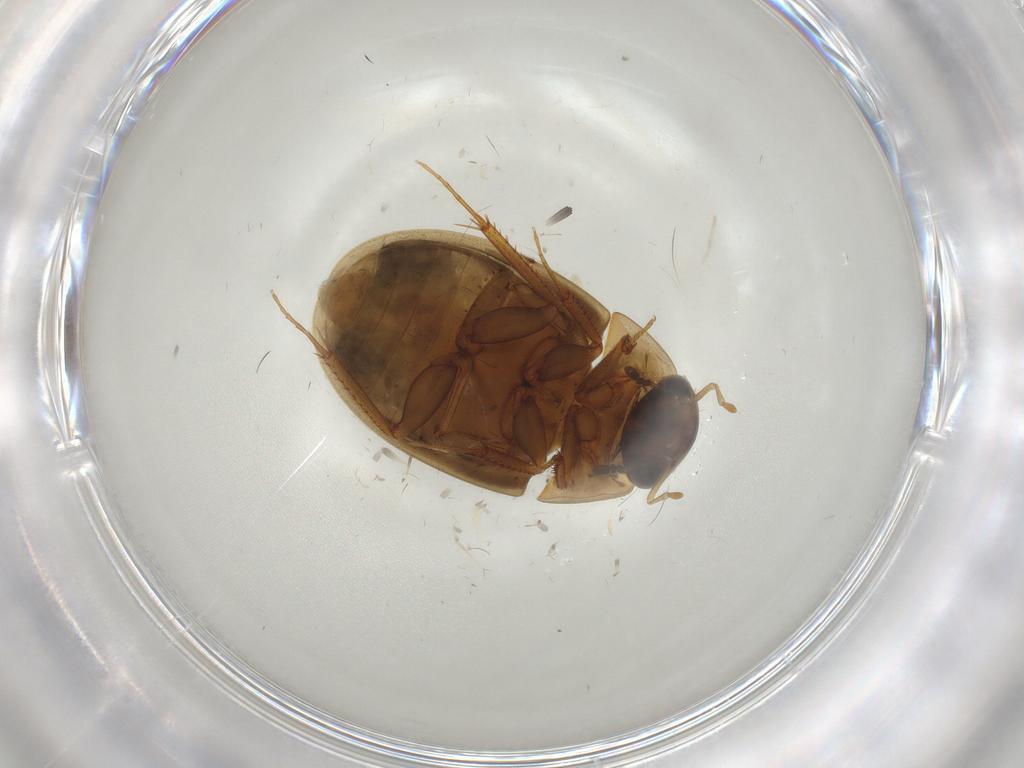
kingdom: Animalia
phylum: Arthropoda
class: Insecta
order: Coleoptera
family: Hydrophilidae
